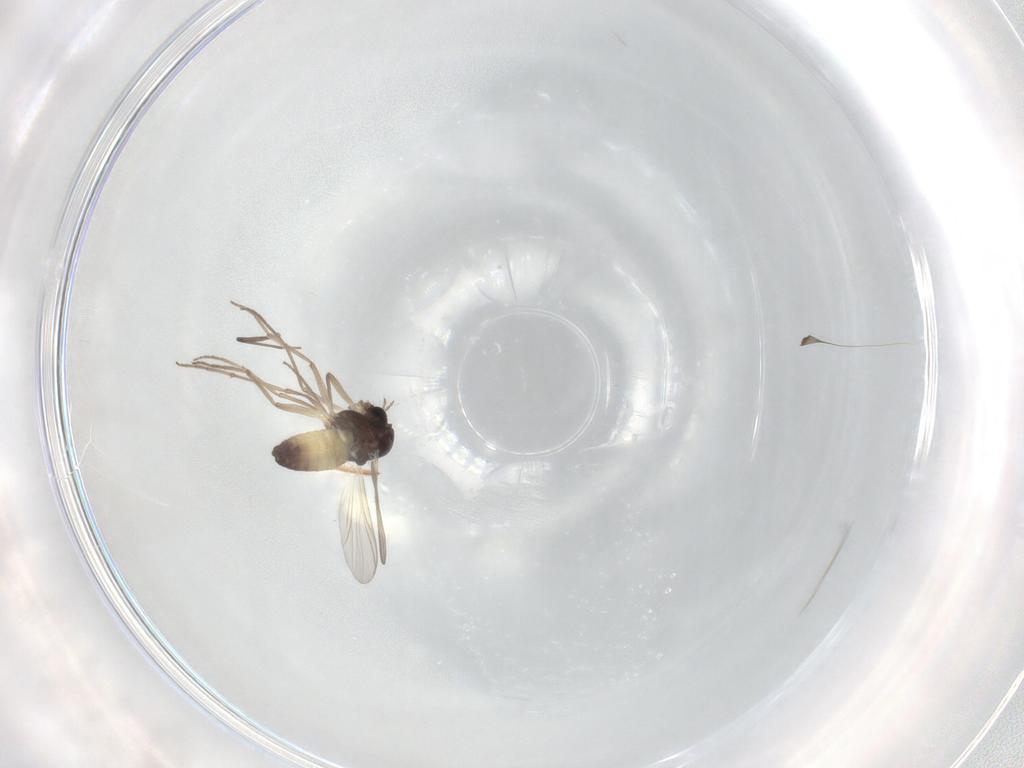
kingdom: Animalia
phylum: Arthropoda
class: Insecta
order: Diptera
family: Chironomidae
